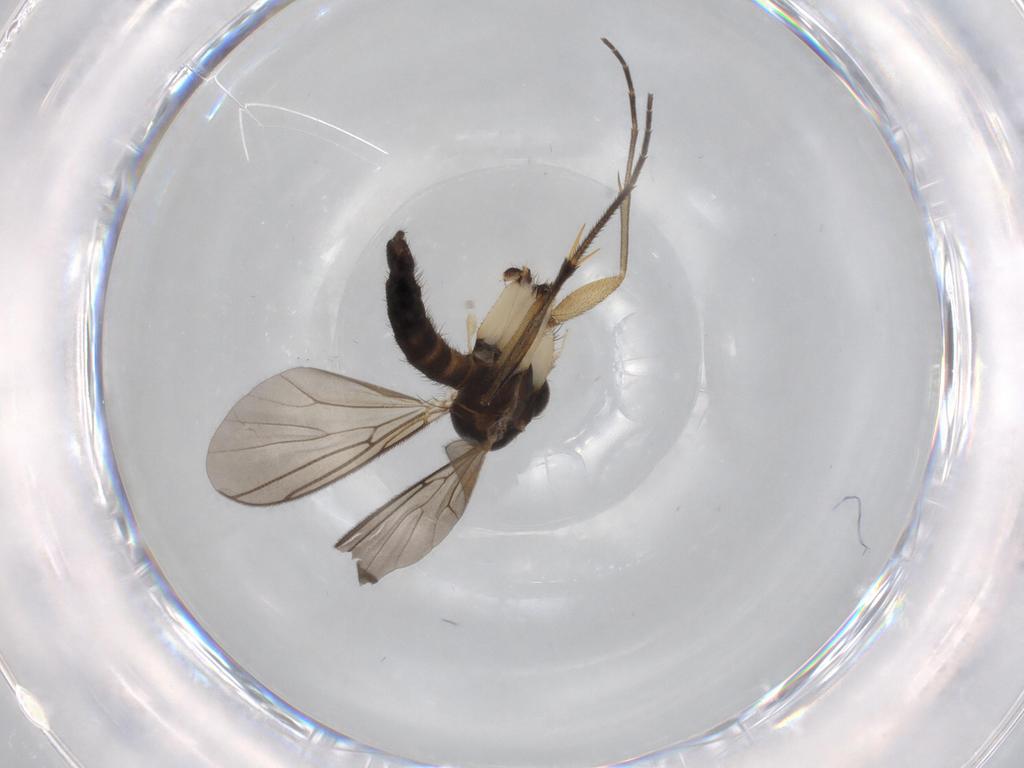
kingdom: Animalia
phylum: Arthropoda
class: Insecta
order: Diptera
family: Mycetophilidae
